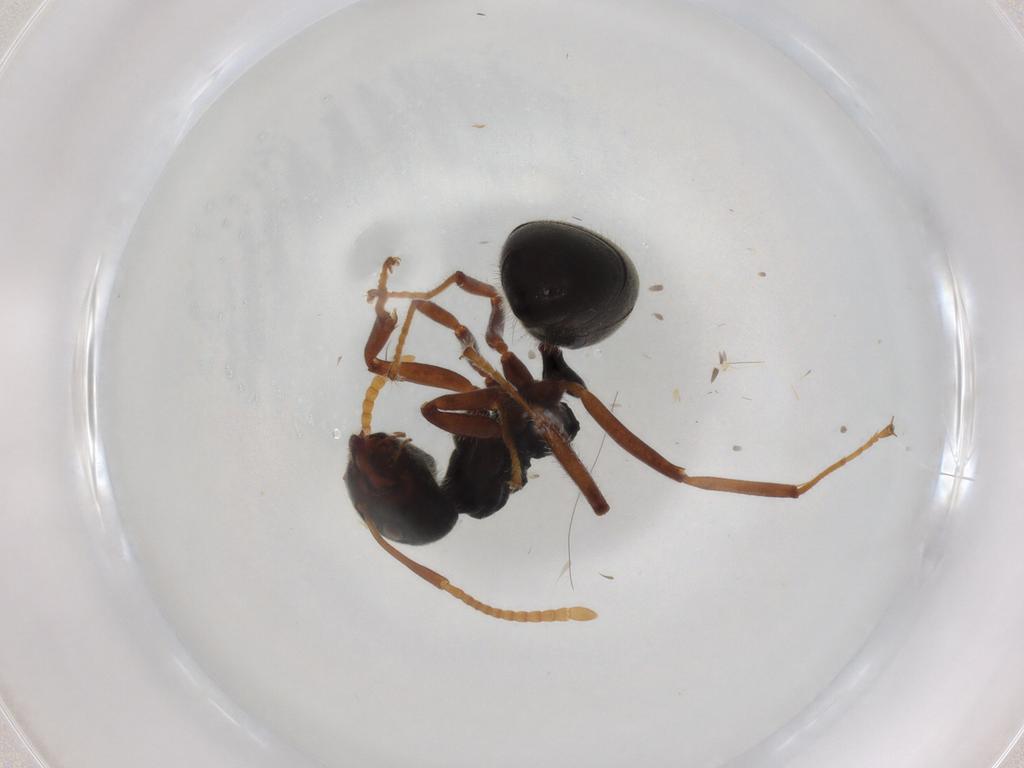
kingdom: Animalia
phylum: Arthropoda
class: Insecta
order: Hymenoptera
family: Formicidae
